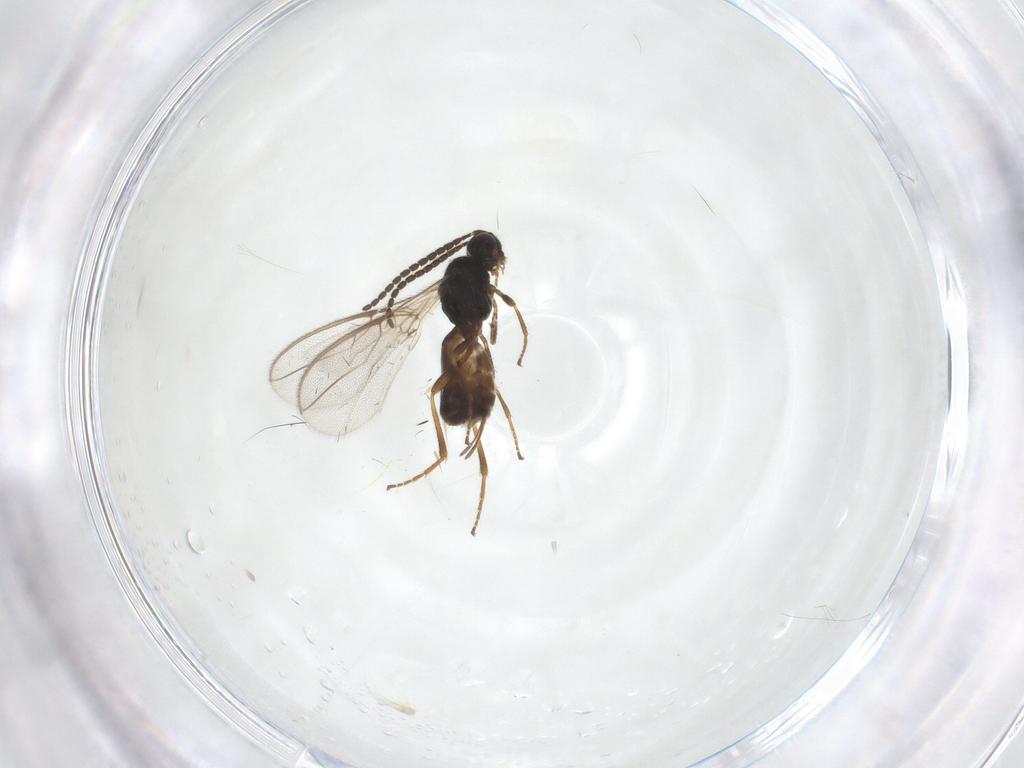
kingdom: Animalia
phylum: Arthropoda
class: Insecta
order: Hymenoptera
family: Braconidae
